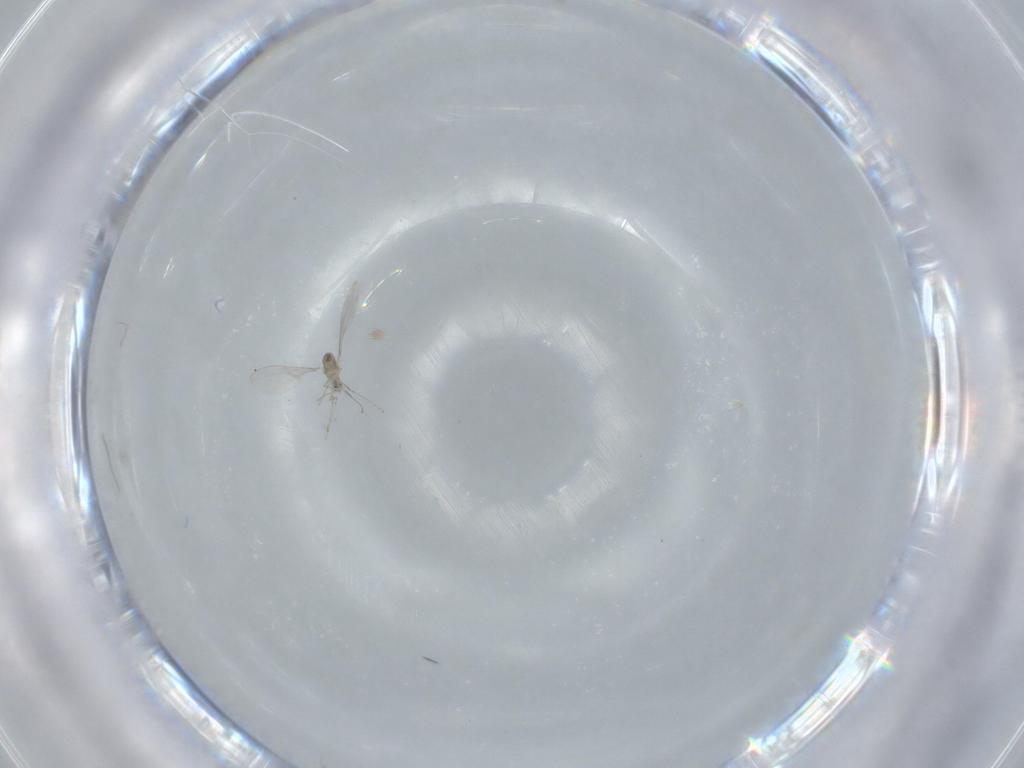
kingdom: Animalia
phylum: Arthropoda
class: Insecta
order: Diptera
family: Cecidomyiidae
